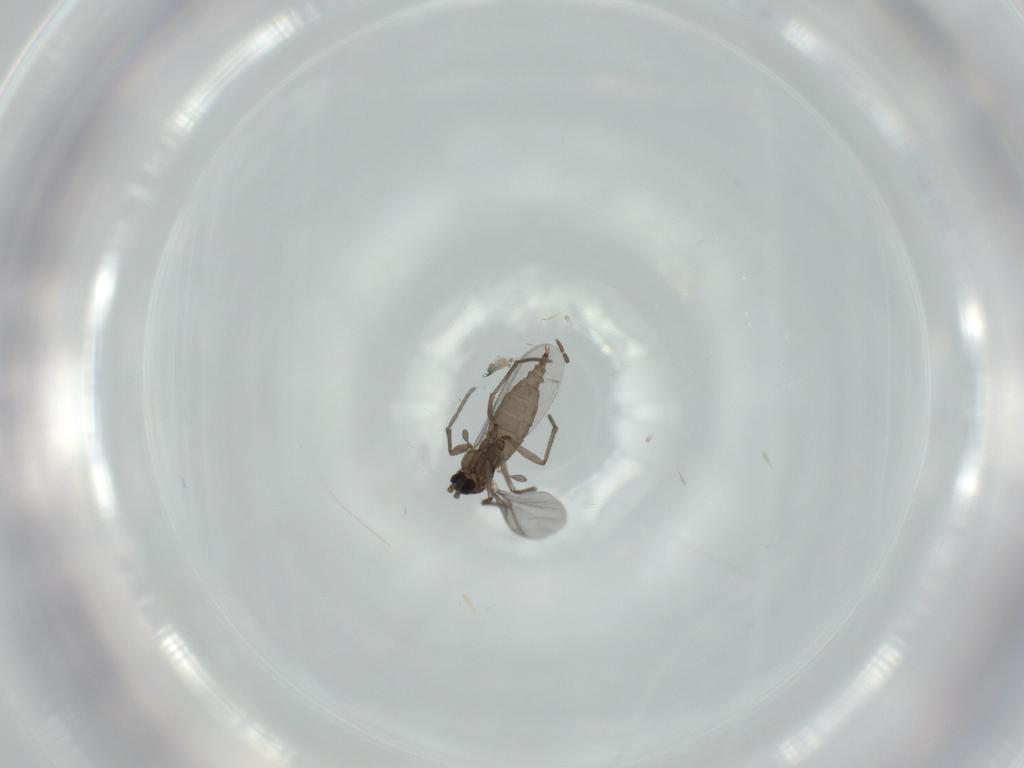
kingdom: Animalia
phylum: Arthropoda
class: Insecta
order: Diptera
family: Sciaridae
